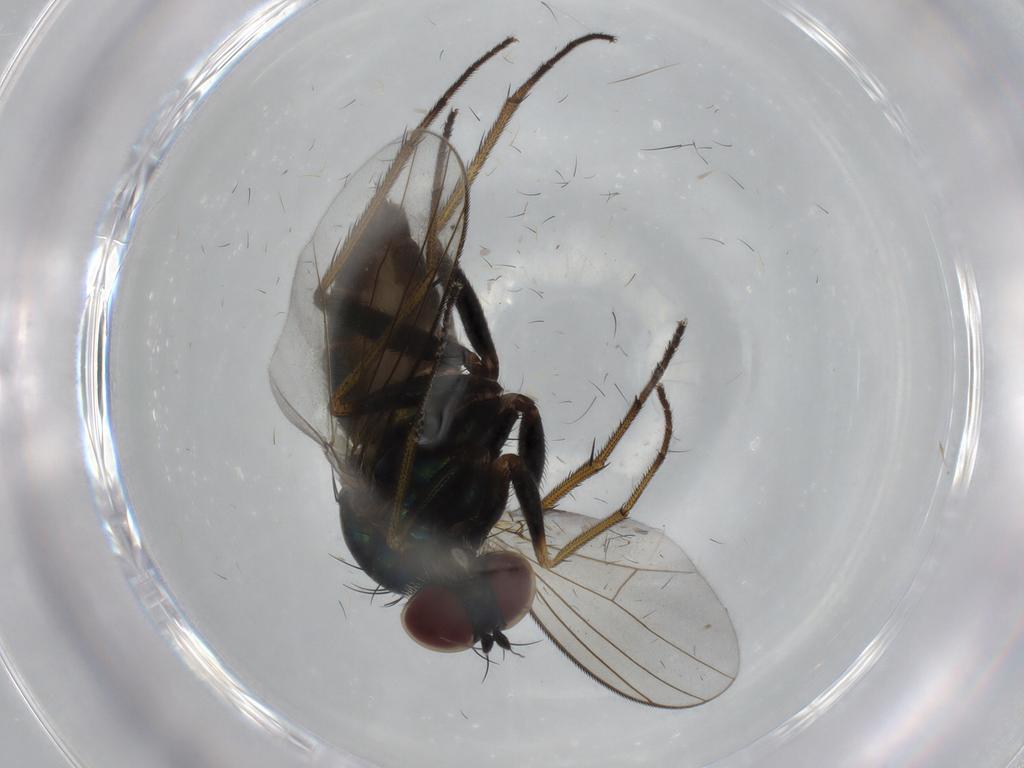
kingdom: Animalia
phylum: Arthropoda
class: Insecta
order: Diptera
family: Dolichopodidae
